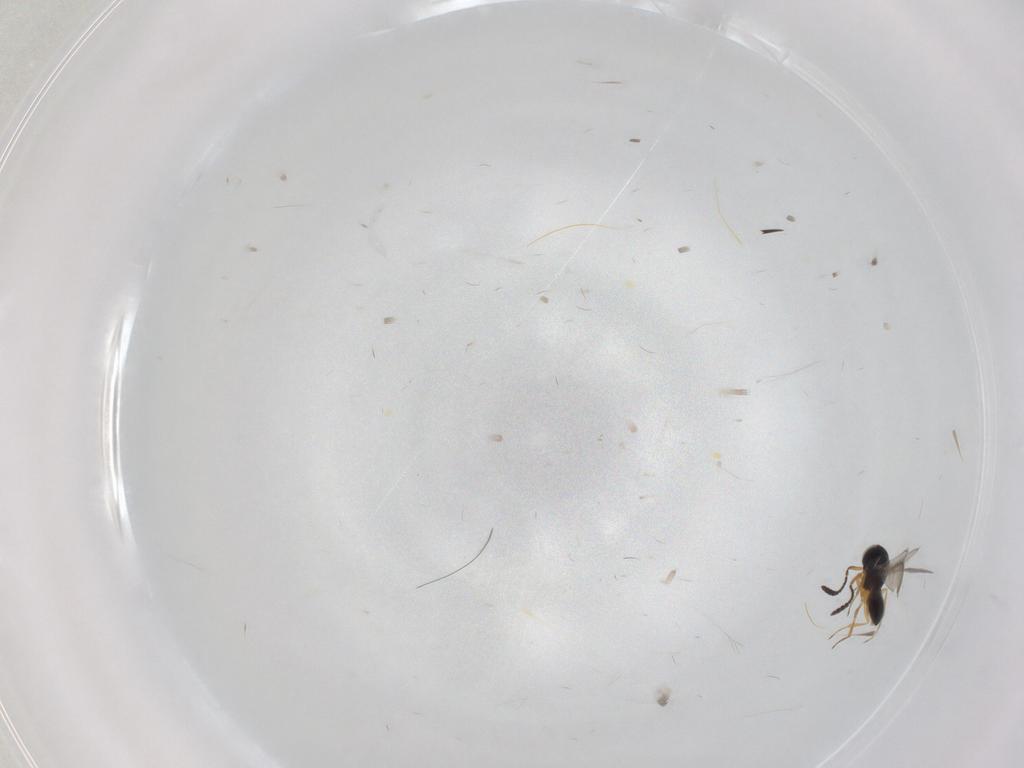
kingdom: Animalia
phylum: Arthropoda
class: Insecta
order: Hymenoptera
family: Scelionidae
